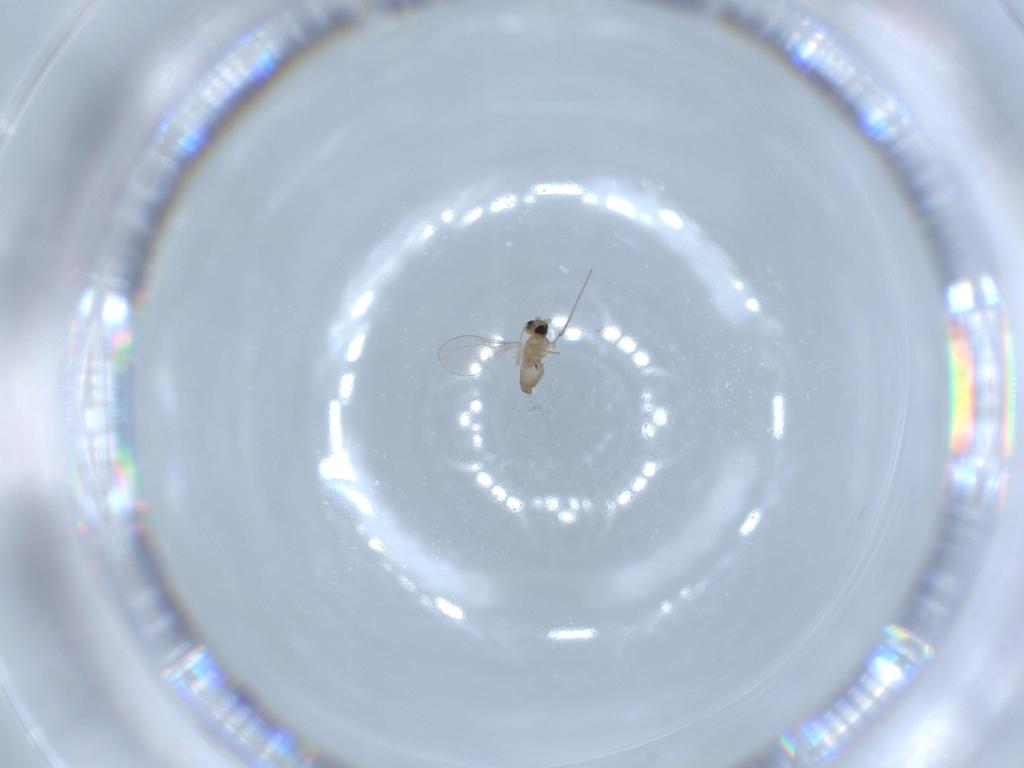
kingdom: Animalia
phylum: Arthropoda
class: Insecta
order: Diptera
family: Cecidomyiidae
